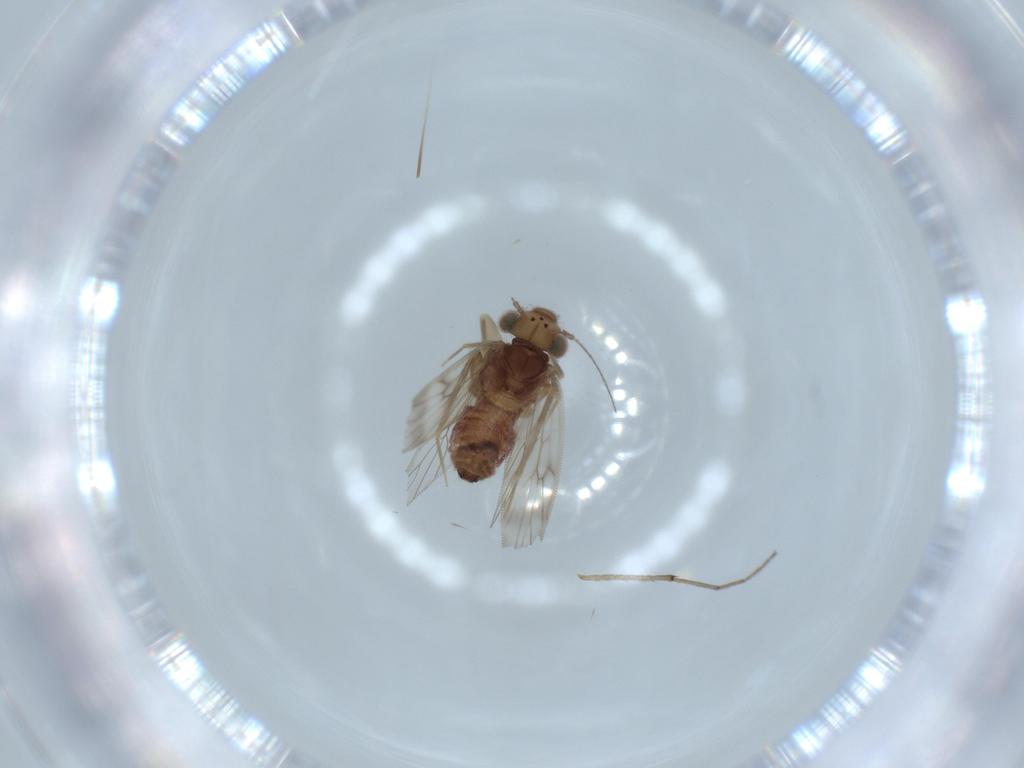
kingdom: Animalia
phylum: Arthropoda
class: Insecta
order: Psocodea
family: Lepidopsocidae
